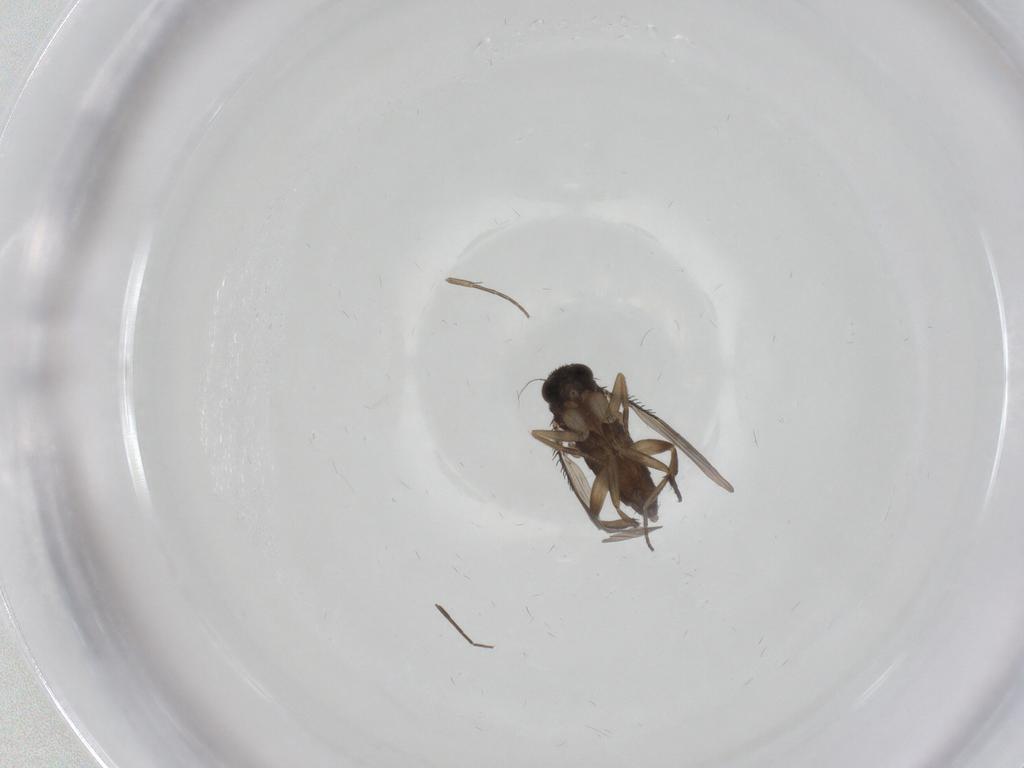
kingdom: Animalia
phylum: Arthropoda
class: Insecta
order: Diptera
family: Phoridae
